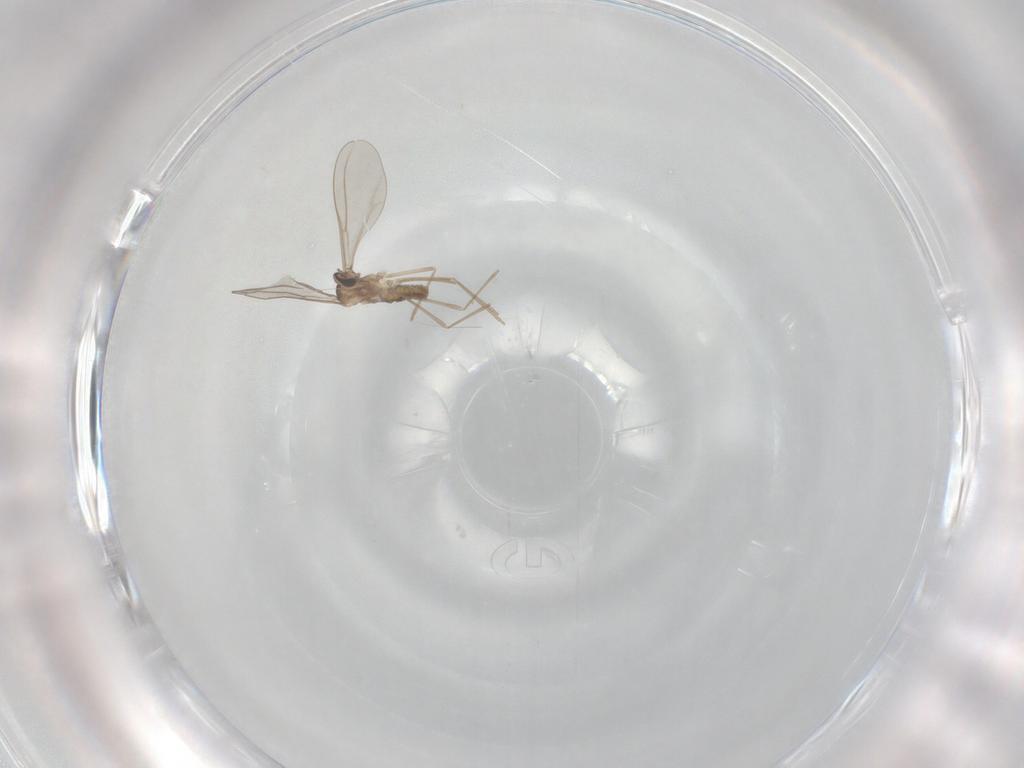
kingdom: Animalia
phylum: Arthropoda
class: Insecta
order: Diptera
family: Cecidomyiidae
